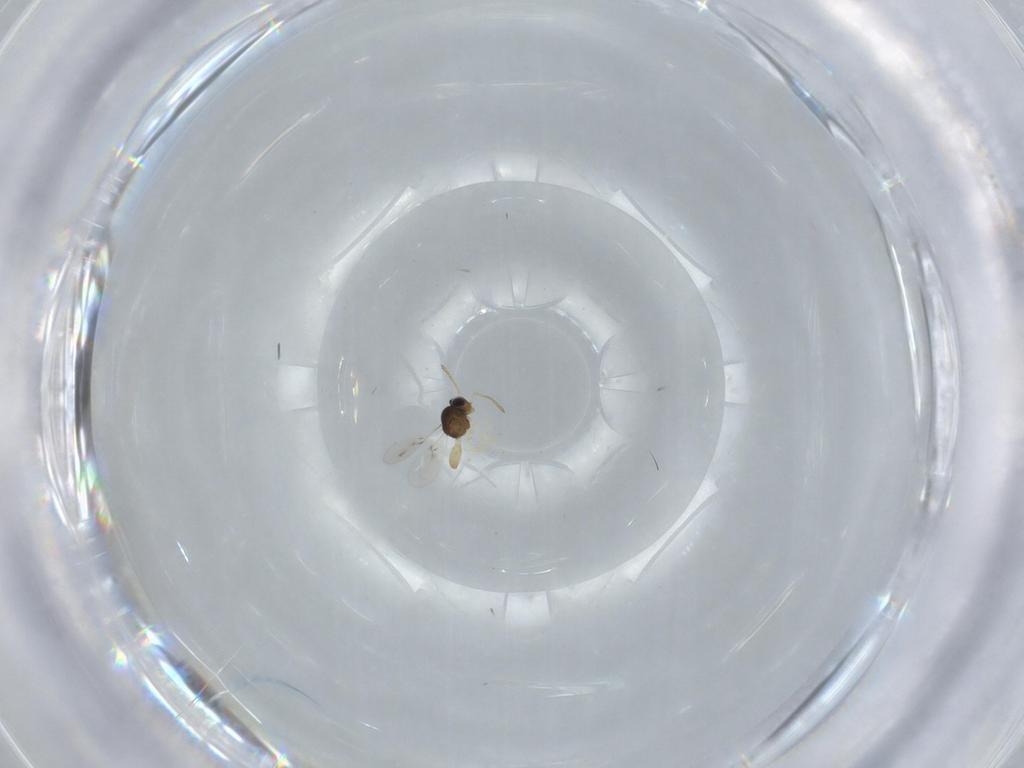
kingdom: Animalia
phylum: Arthropoda
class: Insecta
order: Hymenoptera
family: Scelionidae
